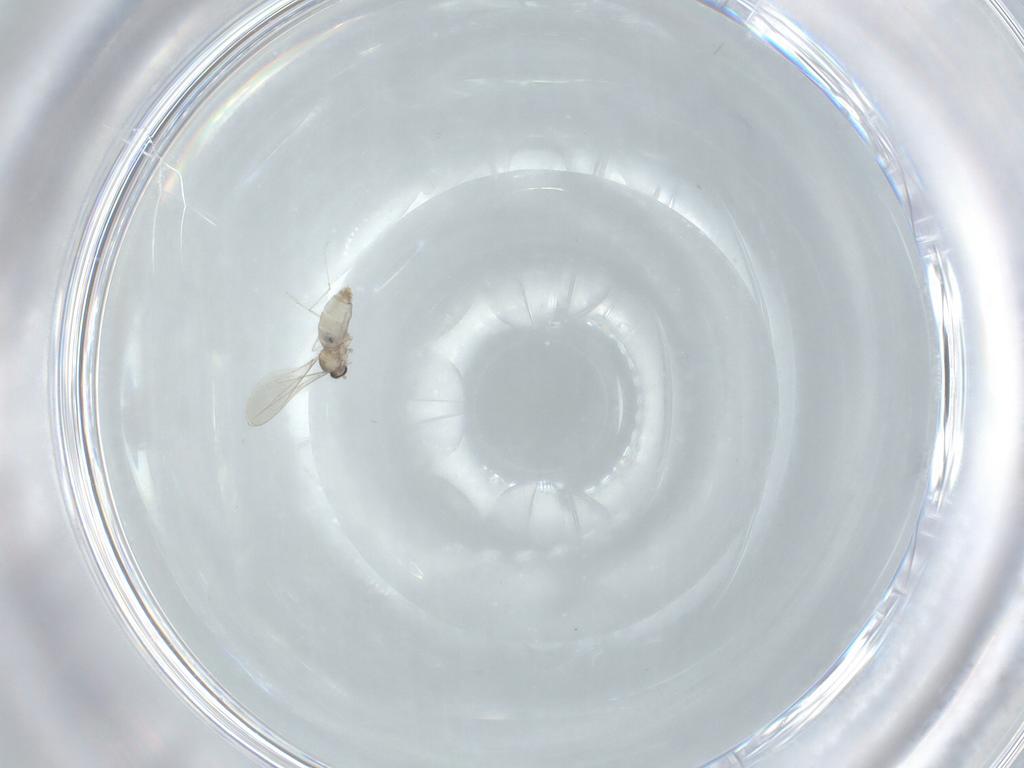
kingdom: Animalia
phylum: Arthropoda
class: Insecta
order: Diptera
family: Cecidomyiidae
